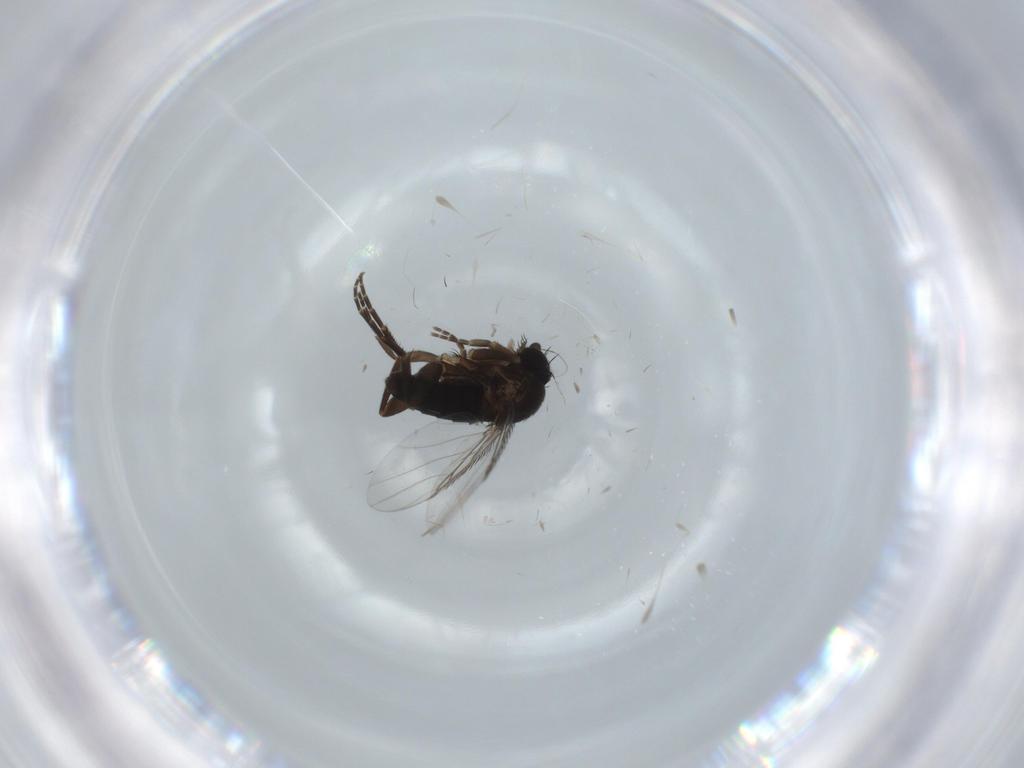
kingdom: Animalia
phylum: Arthropoda
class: Insecta
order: Diptera
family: Phoridae
